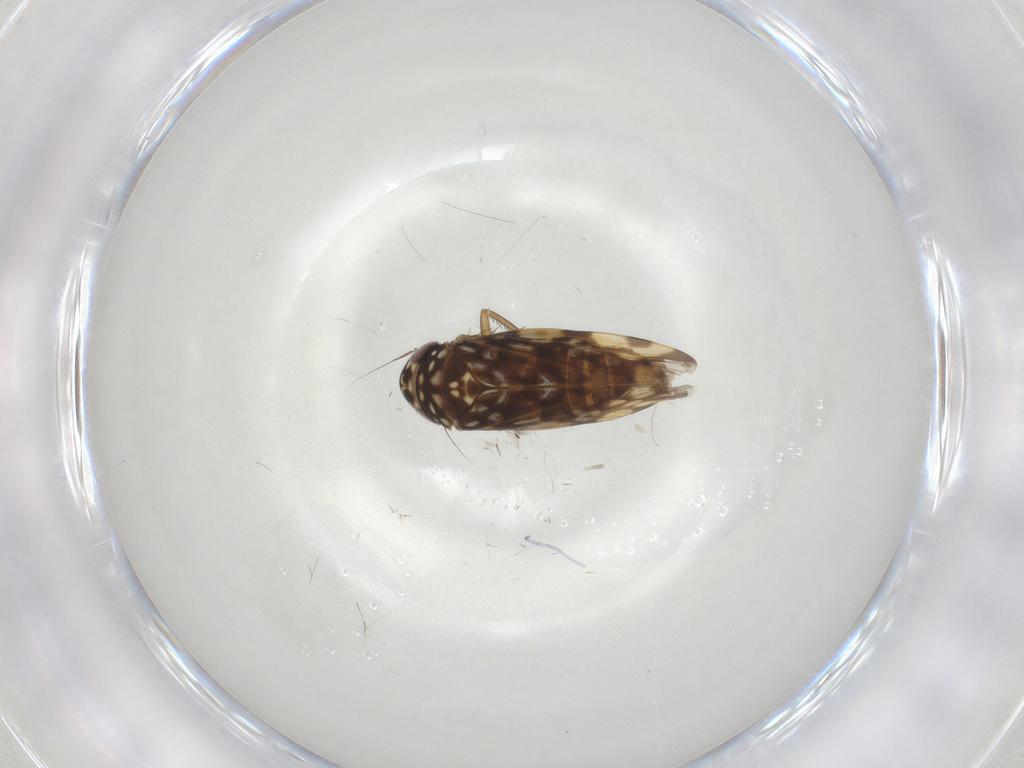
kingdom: Animalia
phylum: Arthropoda
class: Insecta
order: Hemiptera
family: Cicadellidae
